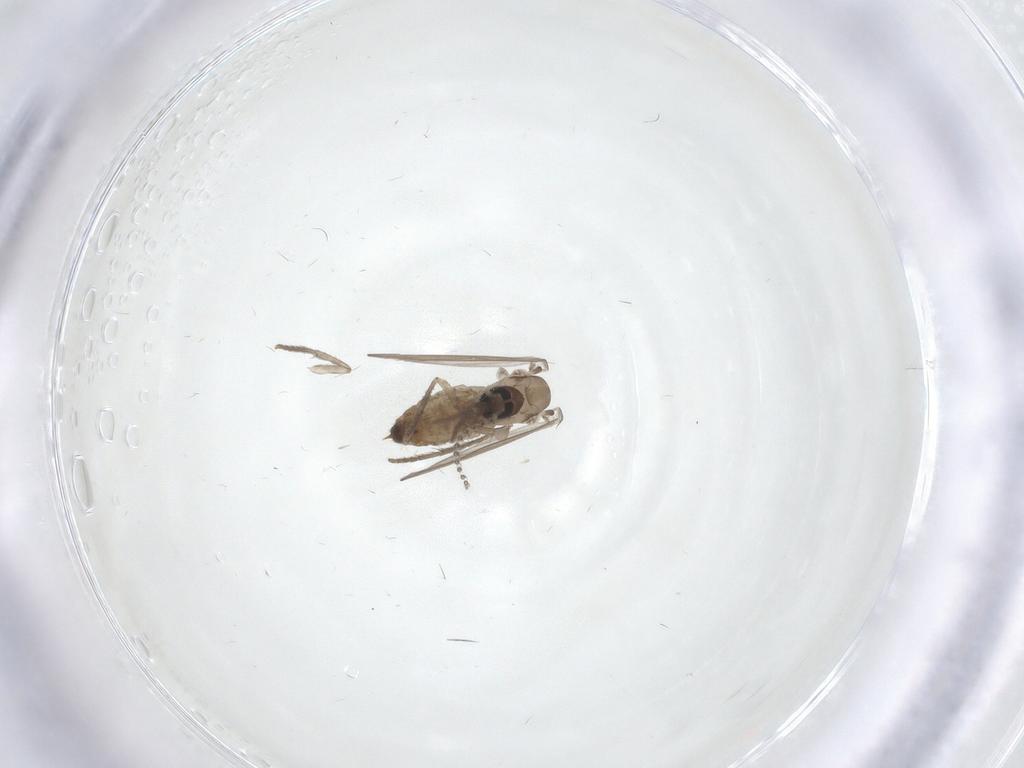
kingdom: Animalia
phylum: Arthropoda
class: Insecta
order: Diptera
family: Psychodidae
